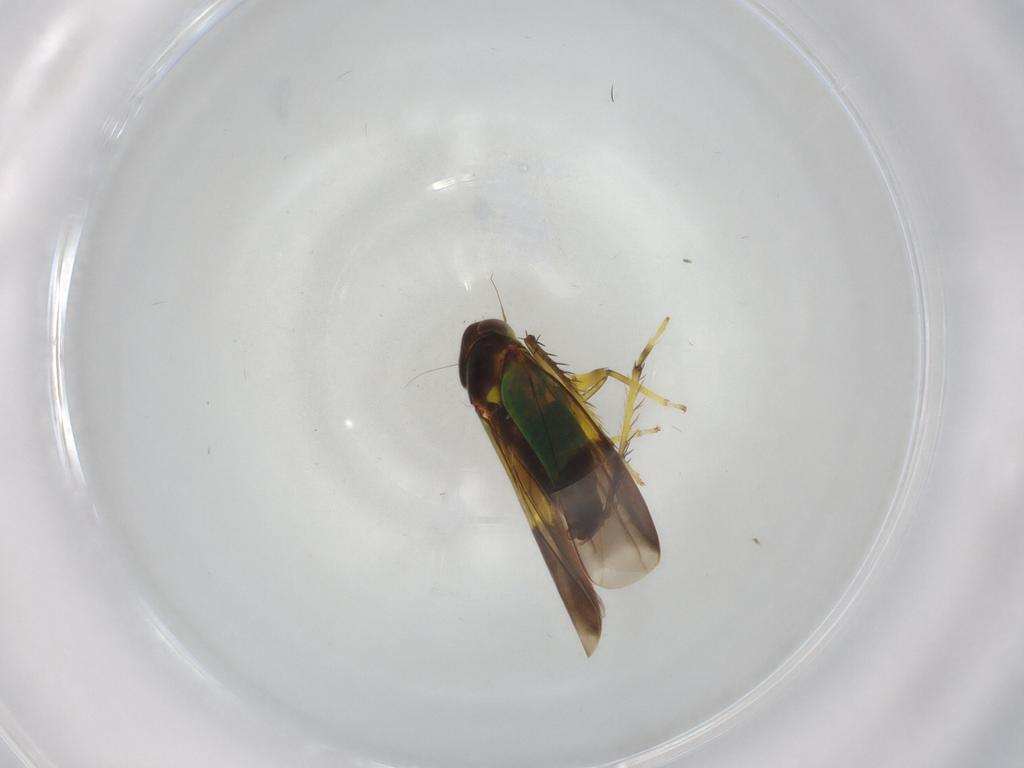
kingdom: Animalia
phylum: Arthropoda
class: Insecta
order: Hemiptera
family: Cicadellidae
